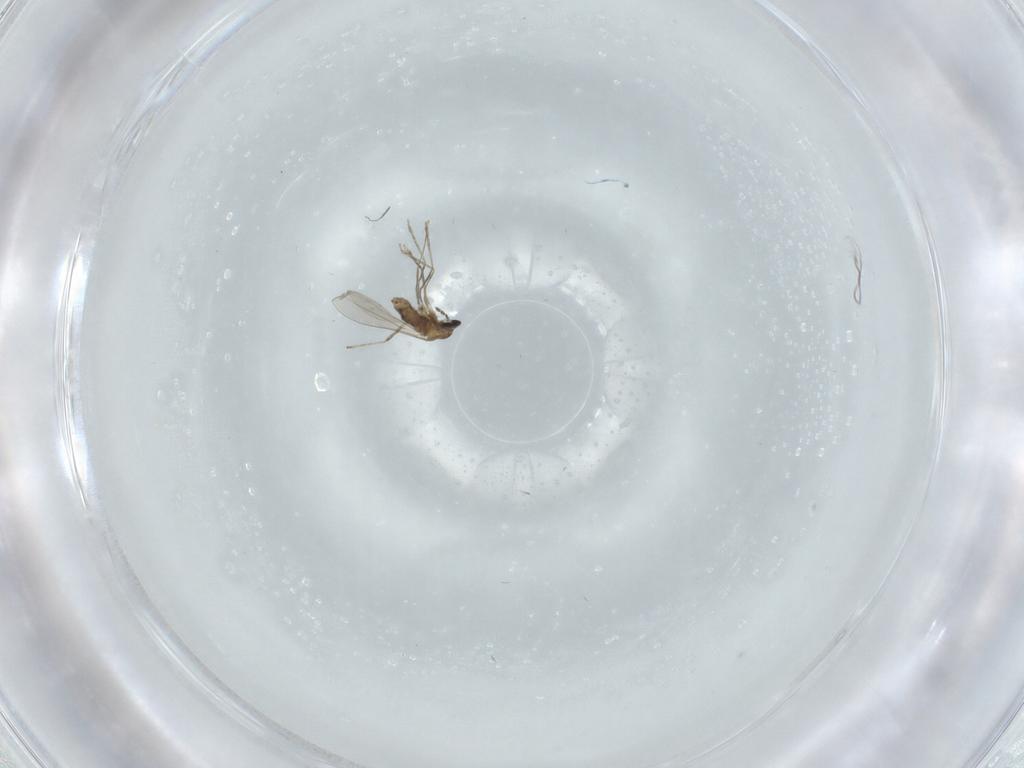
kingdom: Animalia
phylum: Arthropoda
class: Insecta
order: Diptera
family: Cecidomyiidae
